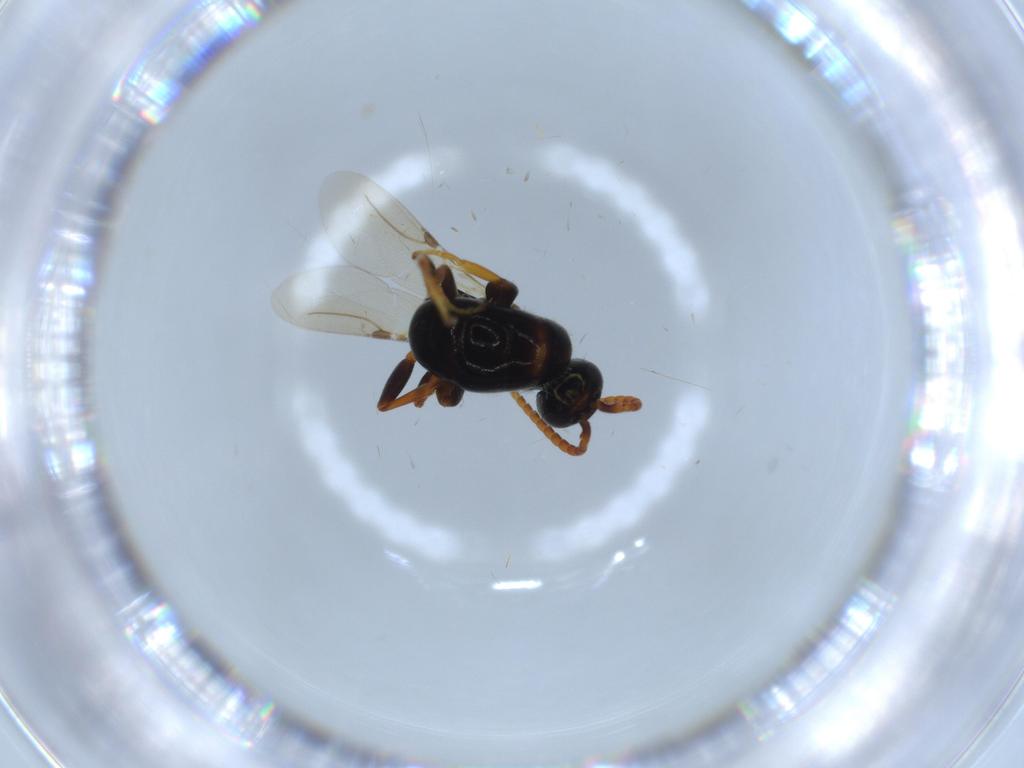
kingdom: Animalia
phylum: Arthropoda
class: Insecta
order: Hymenoptera
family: Bethylidae
